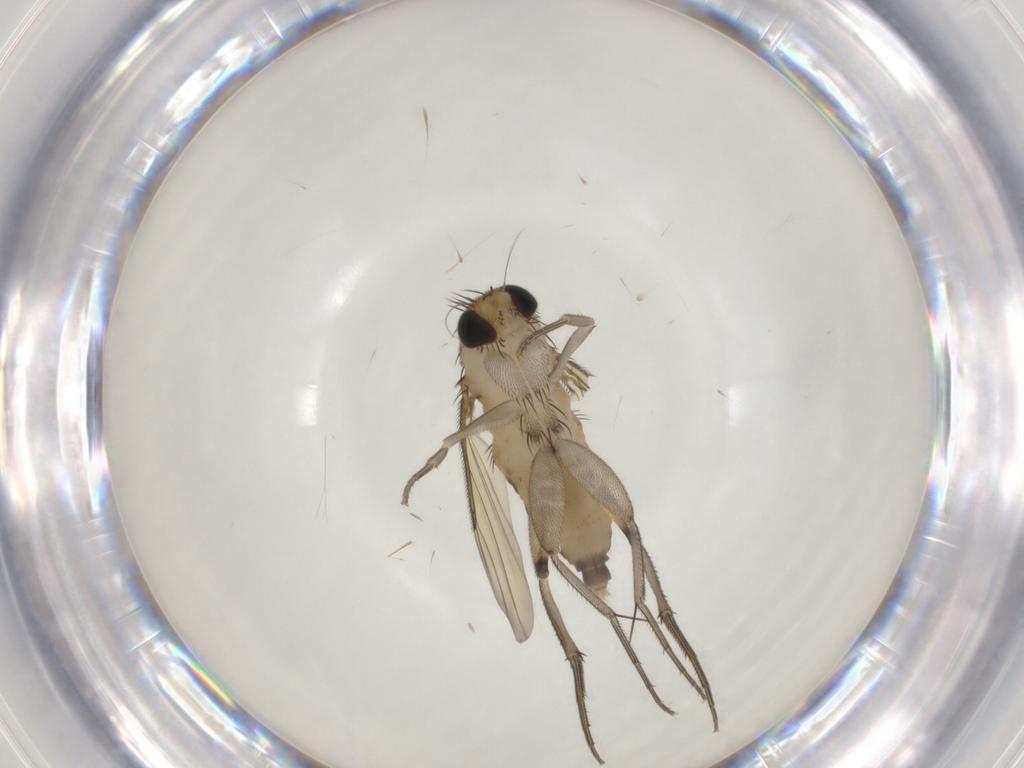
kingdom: Animalia
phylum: Arthropoda
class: Insecta
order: Diptera
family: Phoridae
